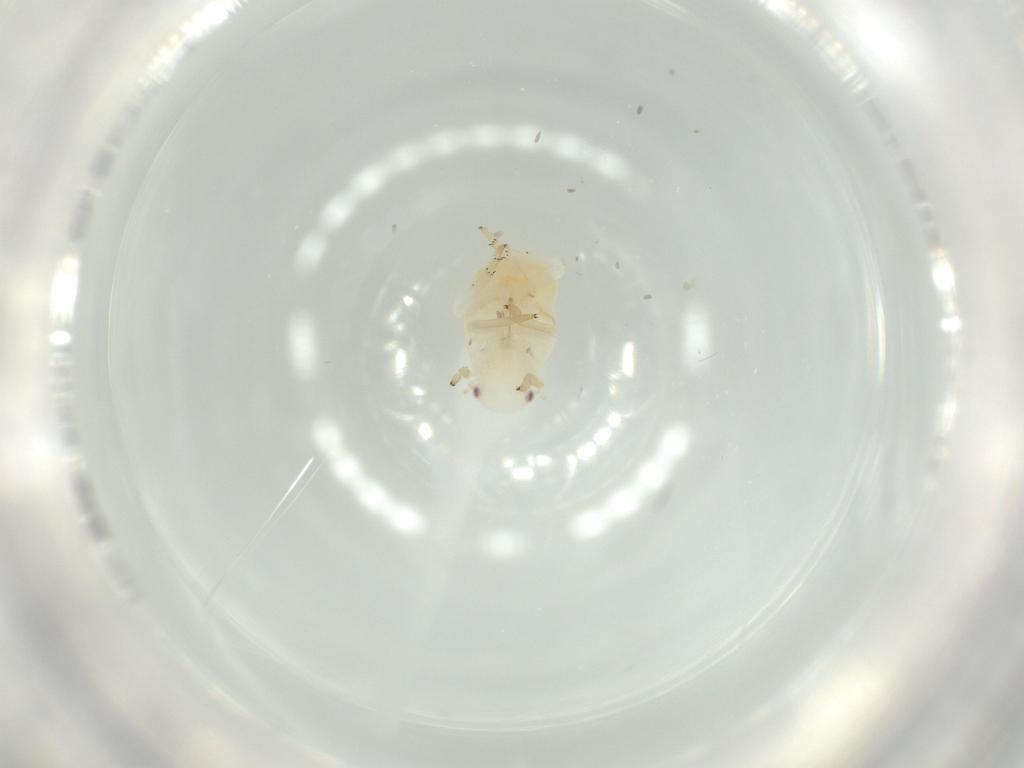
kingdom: Animalia
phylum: Arthropoda
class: Insecta
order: Hemiptera
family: Flatidae
